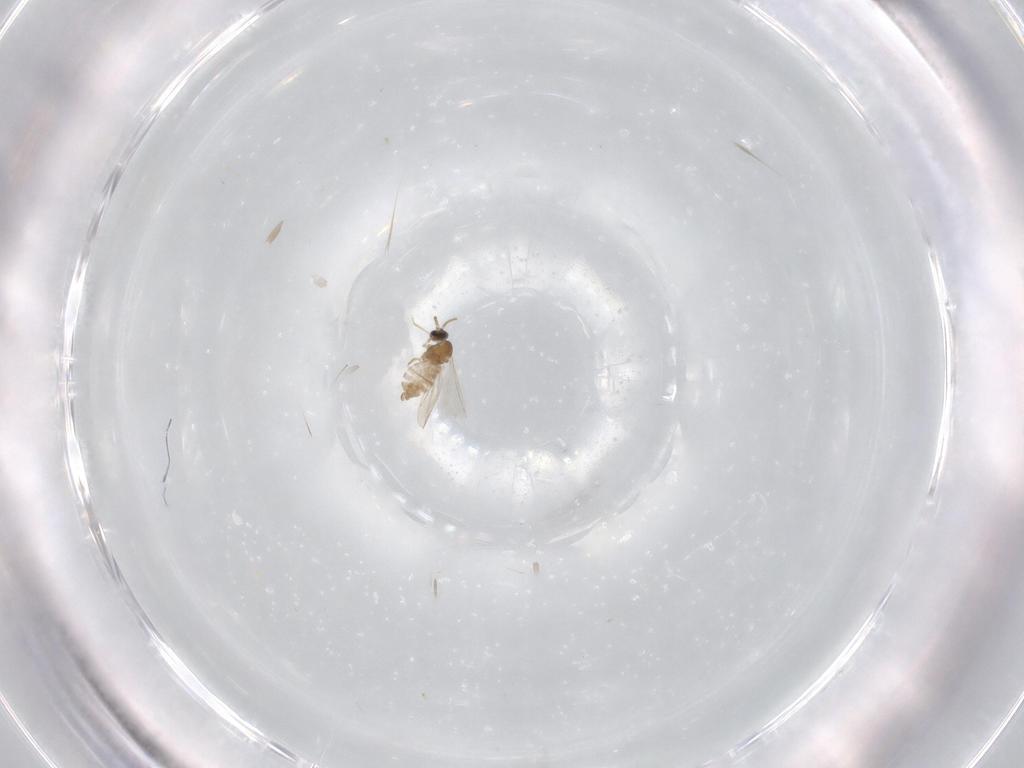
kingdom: Animalia
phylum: Arthropoda
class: Insecta
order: Diptera
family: Cecidomyiidae
